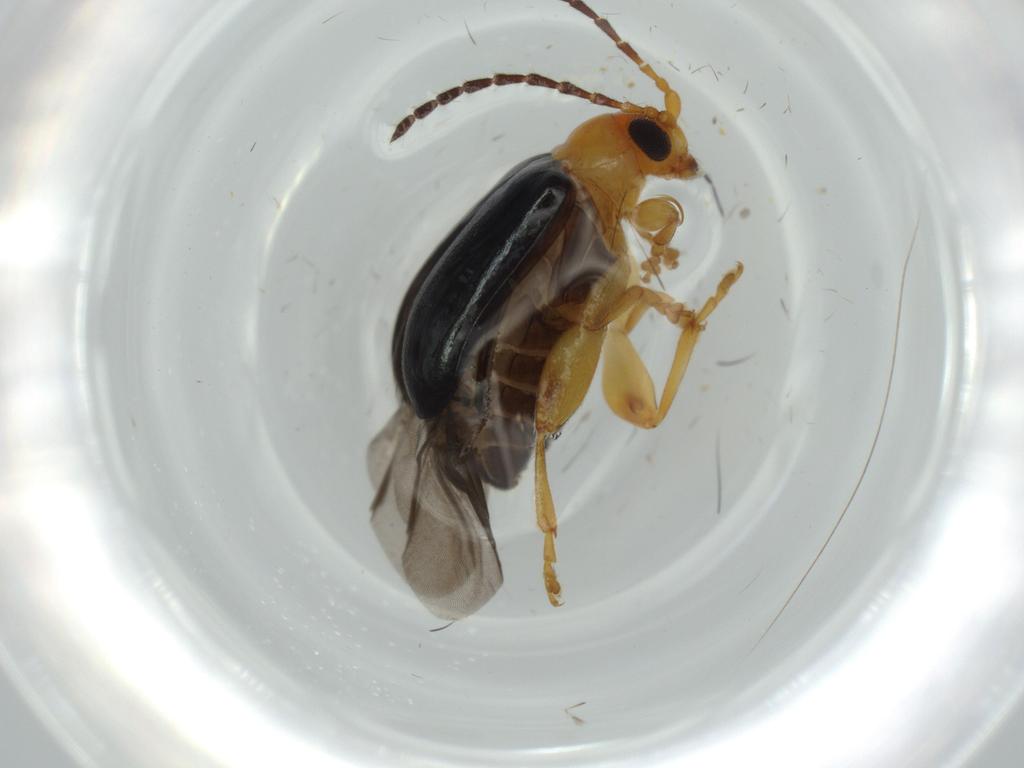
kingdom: Animalia
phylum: Arthropoda
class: Insecta
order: Coleoptera
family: Chrysomelidae
